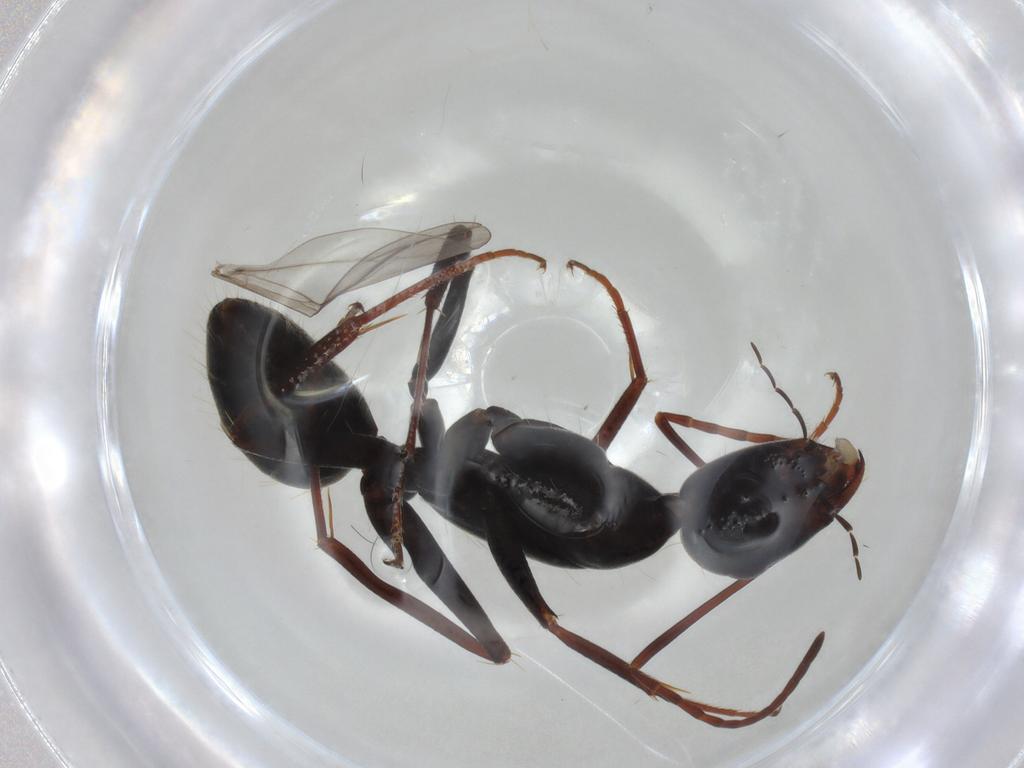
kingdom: Animalia
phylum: Arthropoda
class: Insecta
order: Hymenoptera
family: Formicidae
